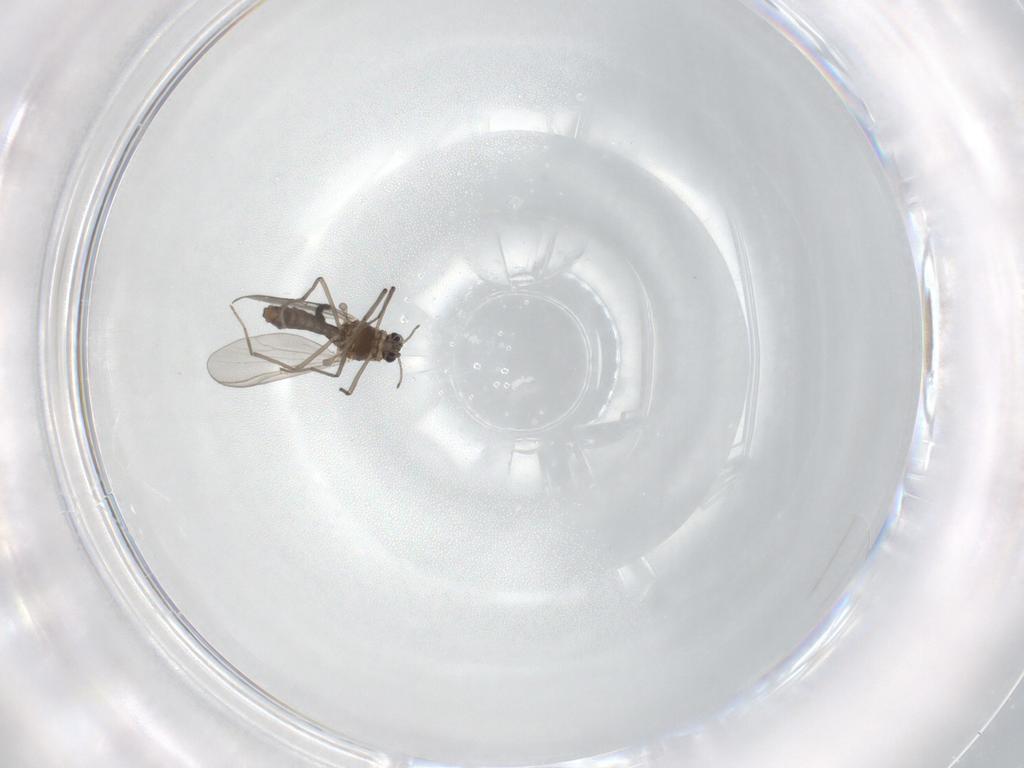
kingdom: Animalia
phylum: Arthropoda
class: Insecta
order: Diptera
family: Chironomidae
